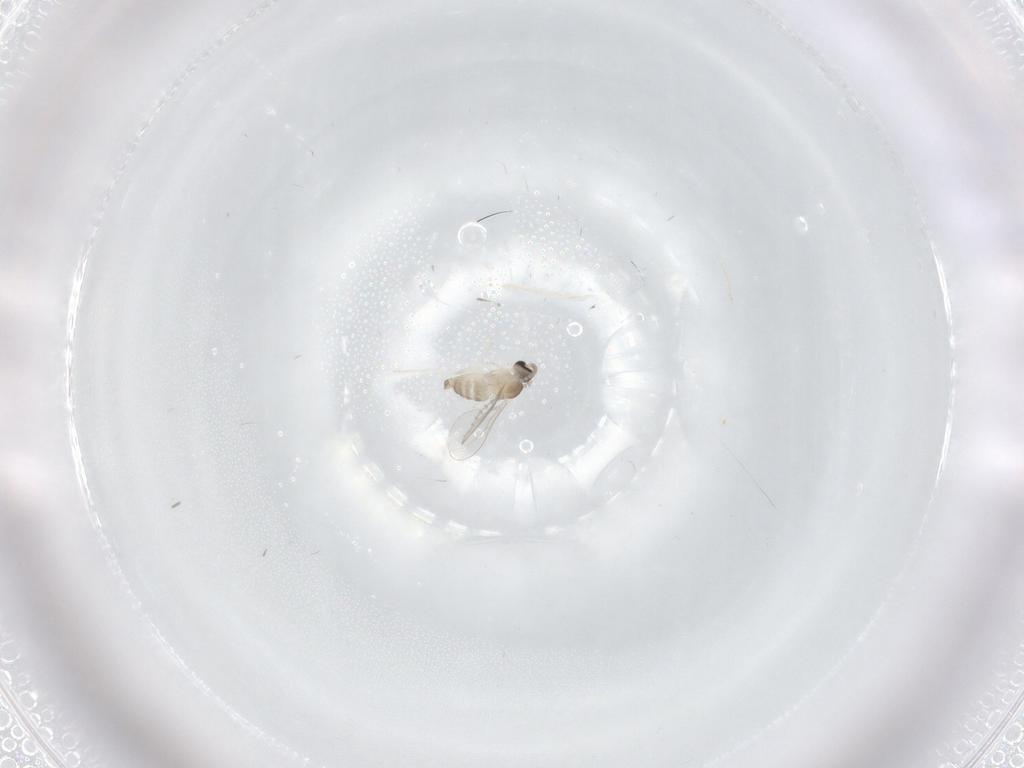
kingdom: Animalia
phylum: Arthropoda
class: Insecta
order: Diptera
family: Cecidomyiidae
